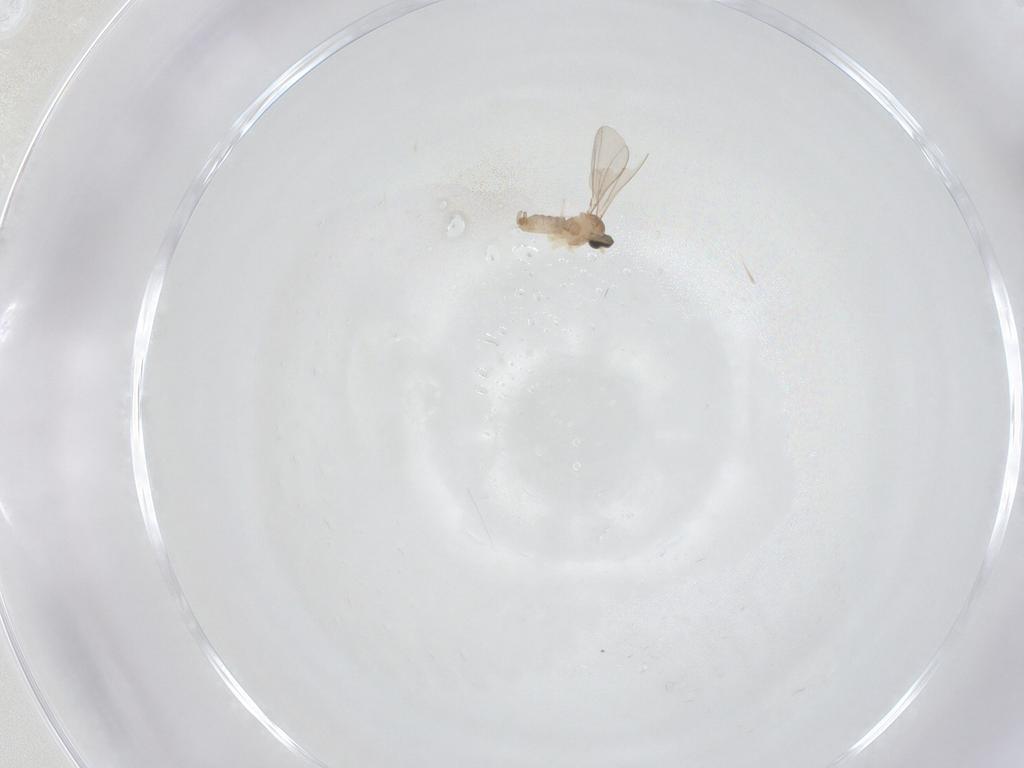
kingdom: Animalia
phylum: Arthropoda
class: Insecta
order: Diptera
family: Cecidomyiidae
